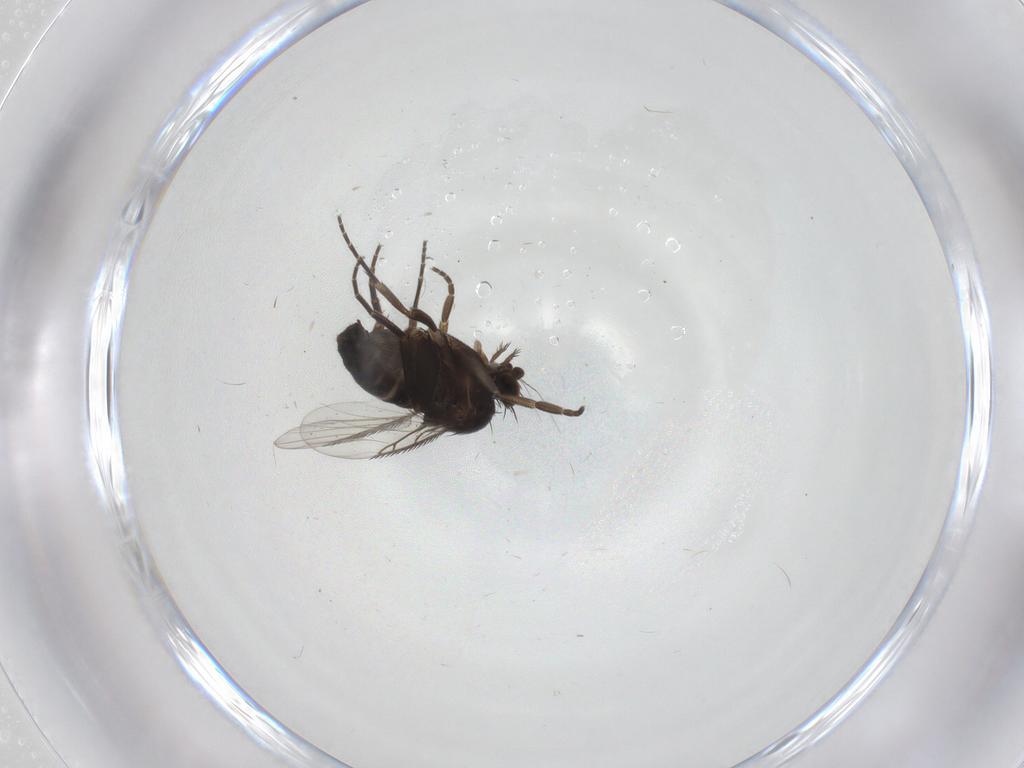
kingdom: Animalia
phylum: Arthropoda
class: Insecta
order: Diptera
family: Phoridae
